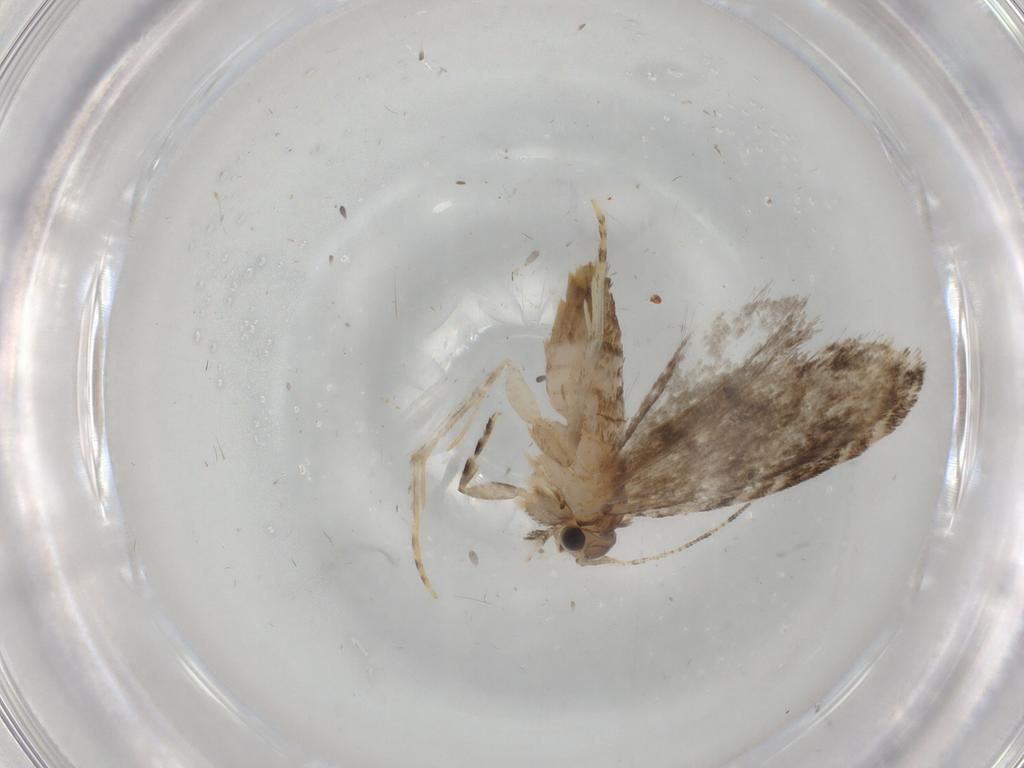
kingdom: Animalia
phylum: Arthropoda
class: Insecta
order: Lepidoptera
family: Tineidae
